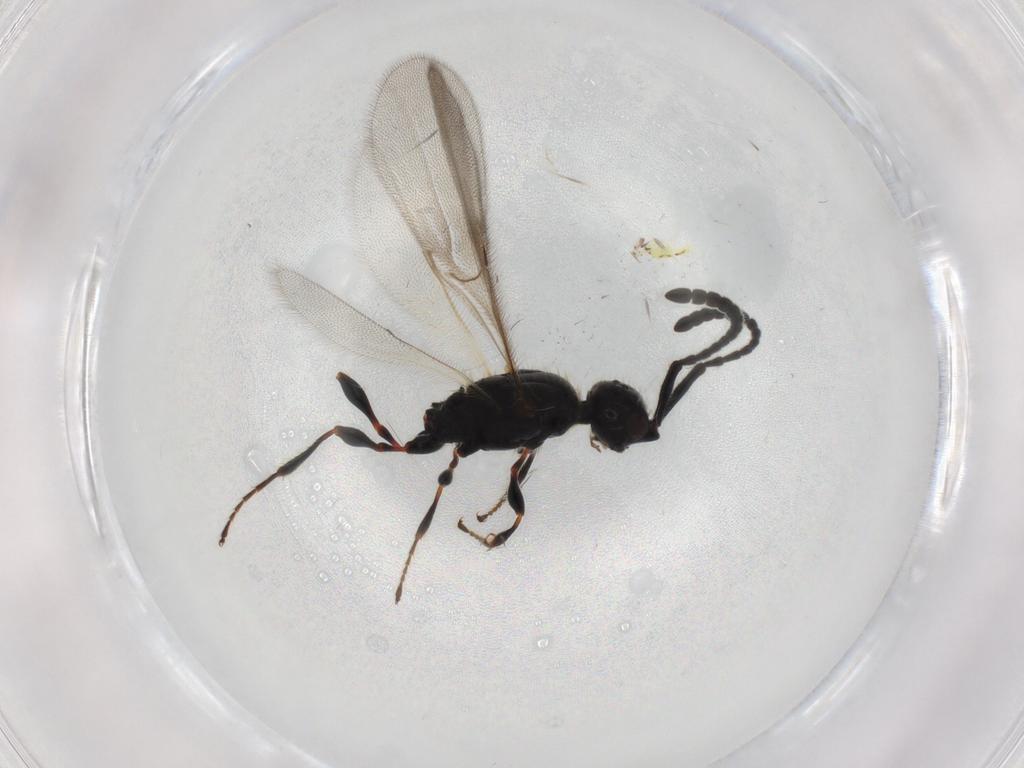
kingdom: Animalia
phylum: Arthropoda
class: Insecta
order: Hymenoptera
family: Diapriidae
